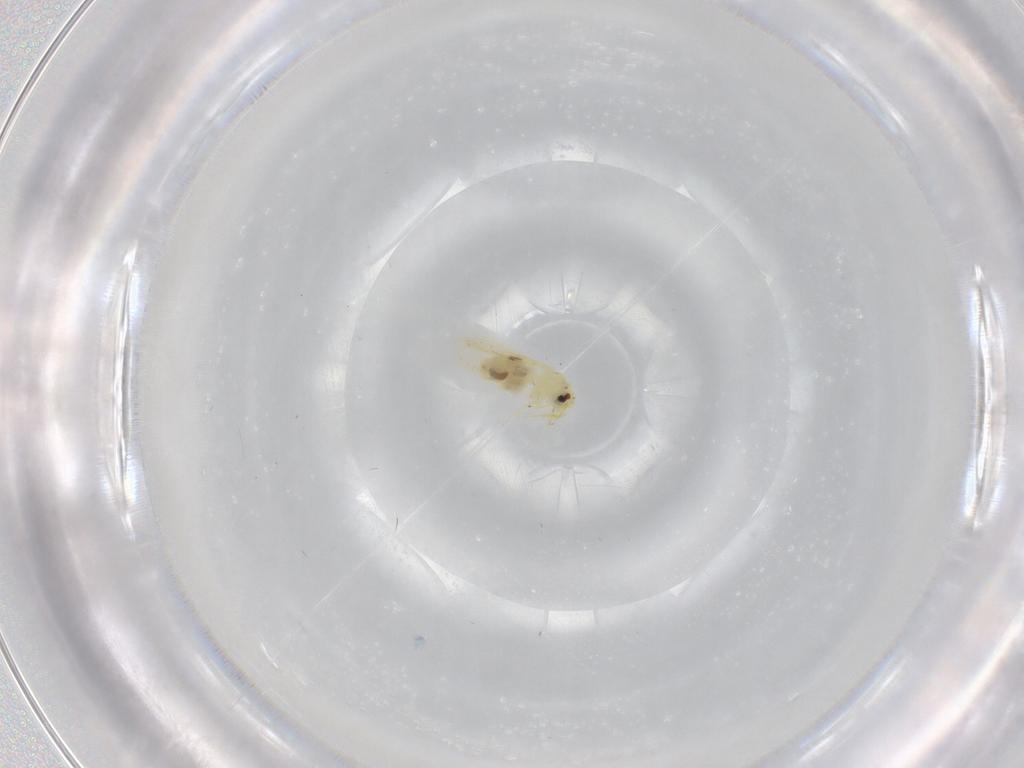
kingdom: Animalia
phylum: Arthropoda
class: Insecta
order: Hemiptera
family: Aleyrodidae
